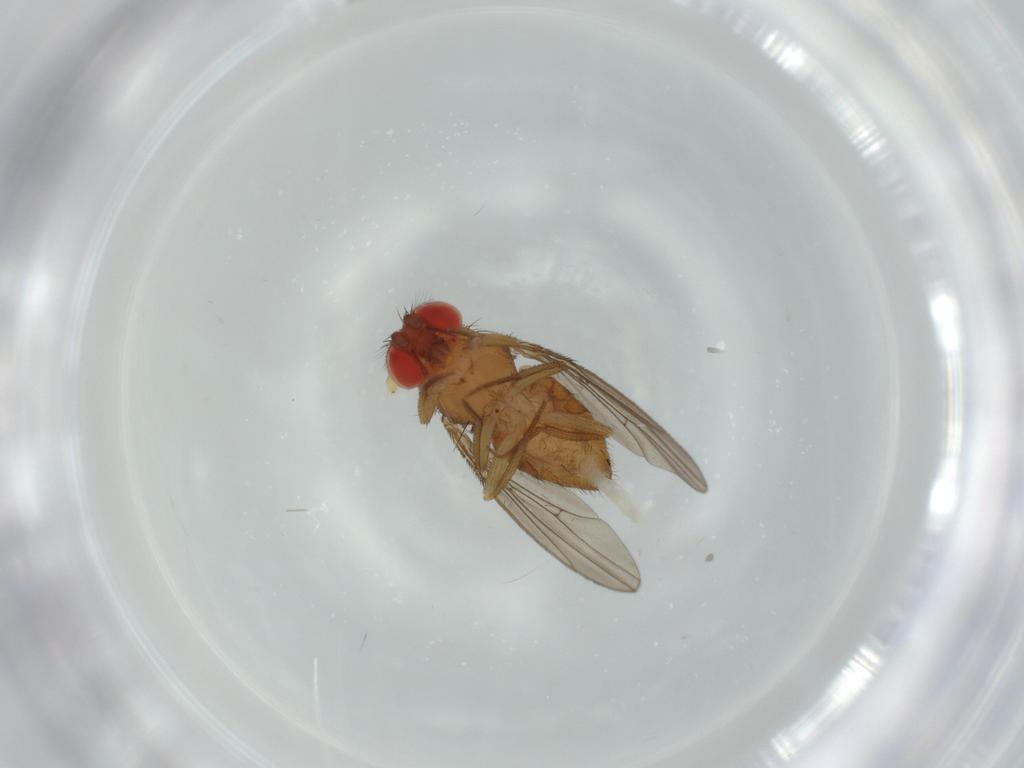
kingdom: Animalia
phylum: Arthropoda
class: Insecta
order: Diptera
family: Drosophilidae
